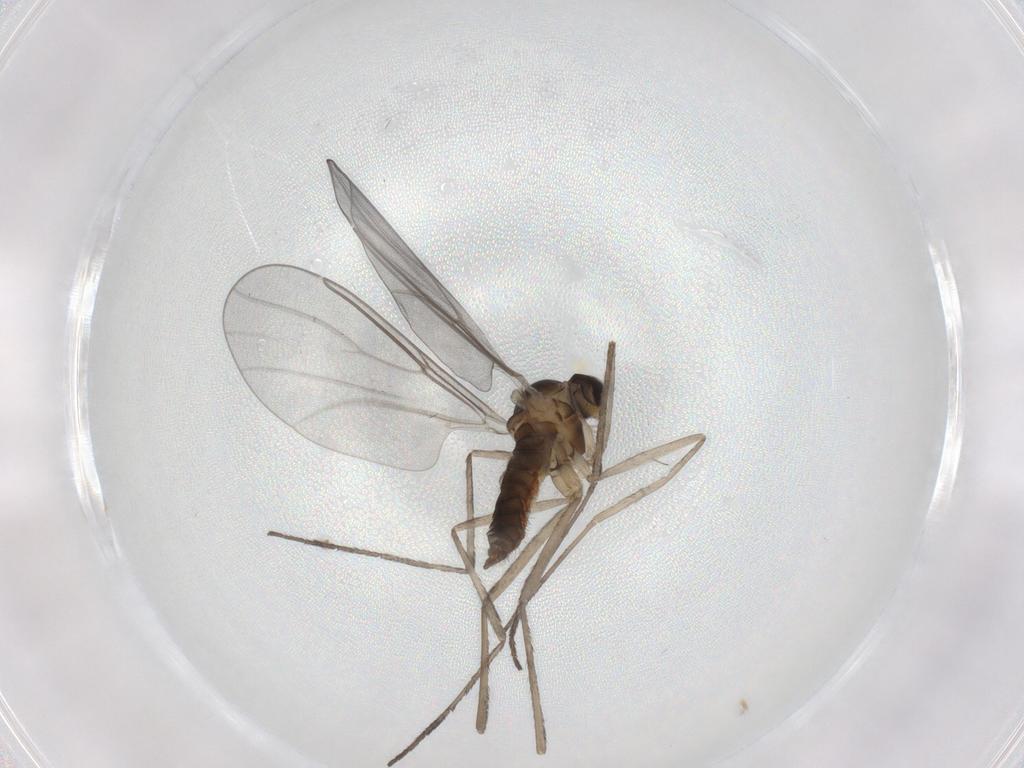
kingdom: Animalia
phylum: Arthropoda
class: Insecta
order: Diptera
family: Cecidomyiidae
